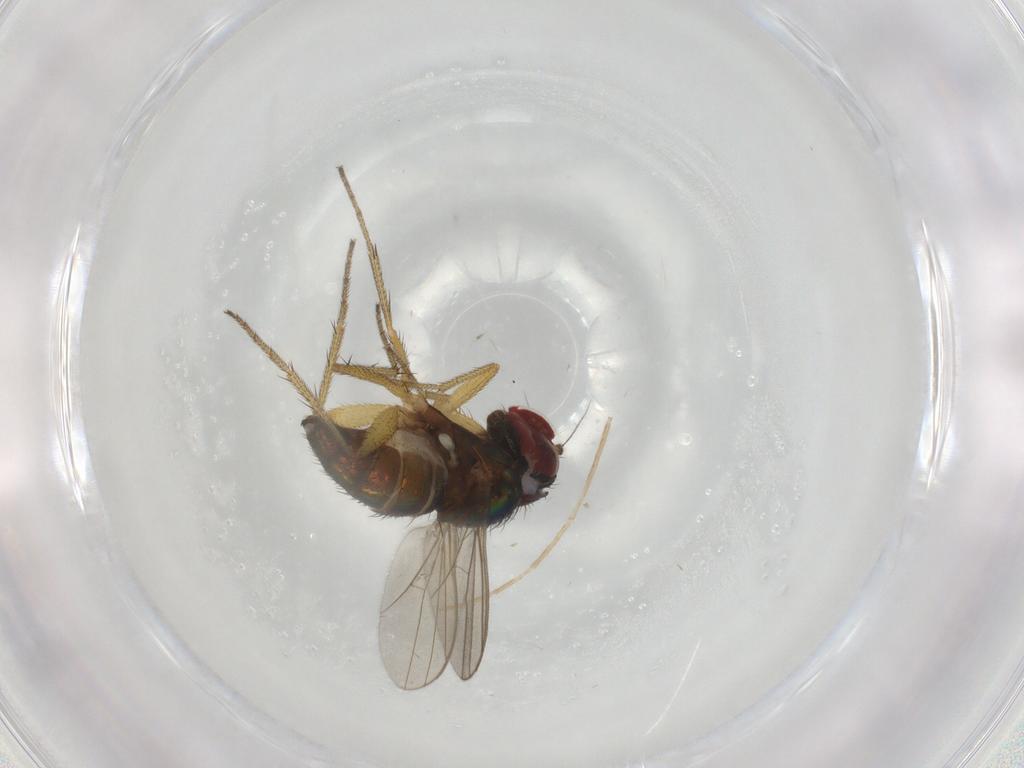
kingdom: Animalia
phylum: Arthropoda
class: Insecta
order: Diptera
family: Dolichopodidae
